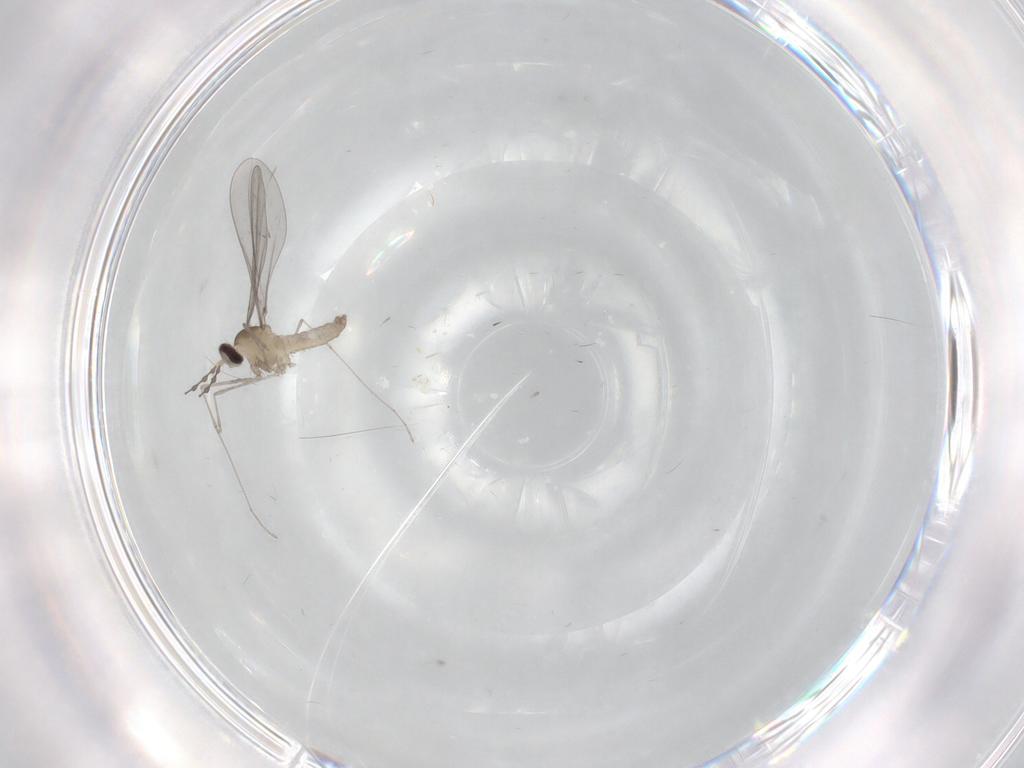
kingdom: Animalia
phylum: Arthropoda
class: Insecta
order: Diptera
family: Cecidomyiidae
